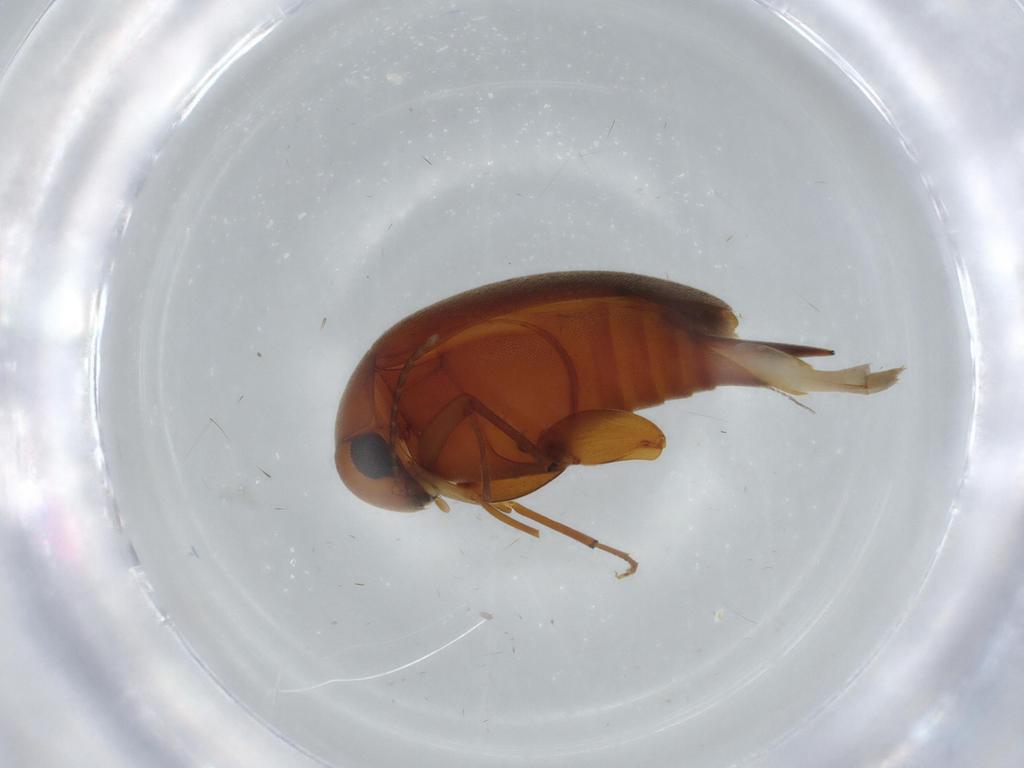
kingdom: Animalia
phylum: Arthropoda
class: Insecta
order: Coleoptera
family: Mordellidae
